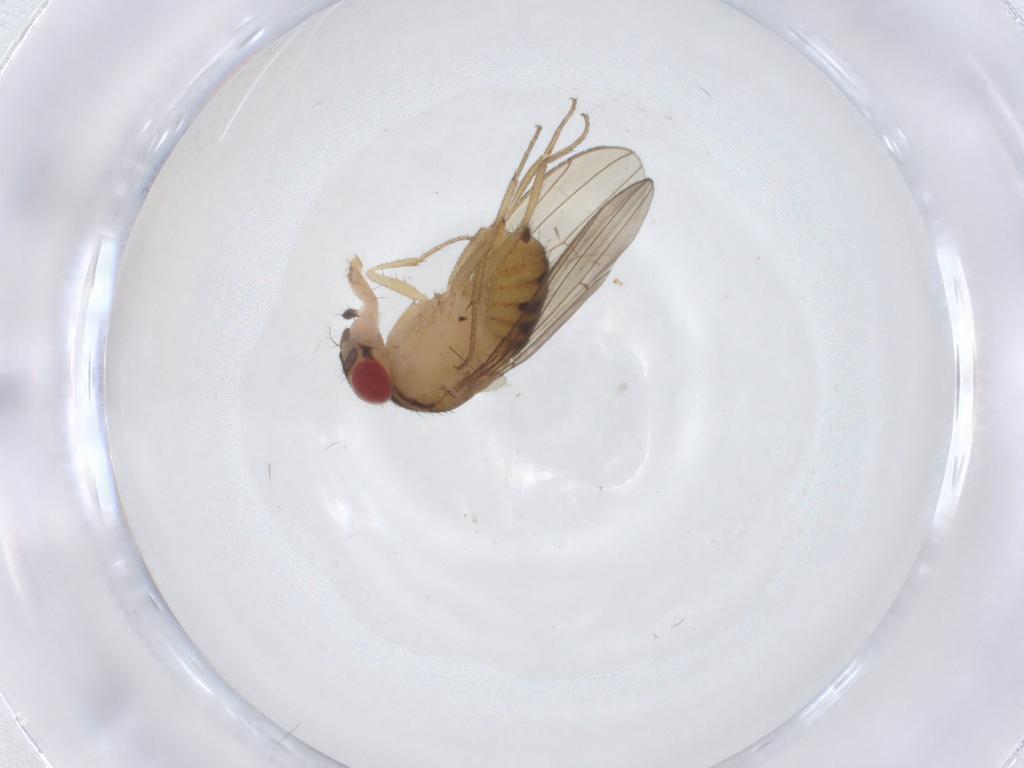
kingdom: Animalia
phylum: Arthropoda
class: Insecta
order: Diptera
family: Drosophilidae
